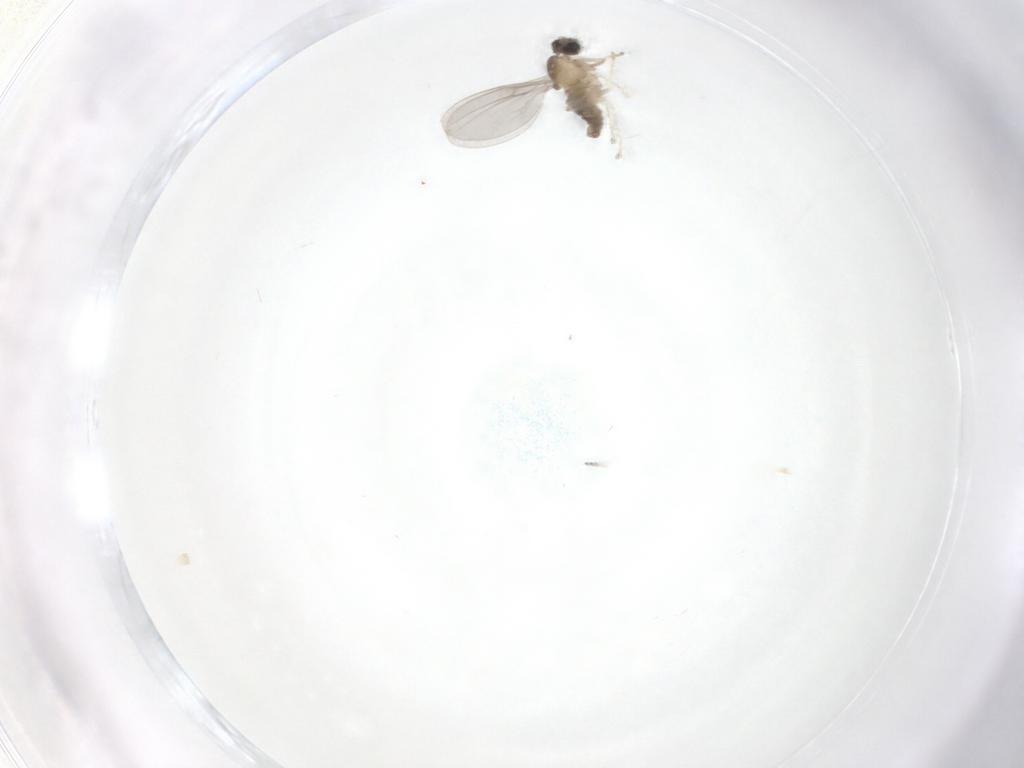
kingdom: Animalia
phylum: Arthropoda
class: Insecta
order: Diptera
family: Cecidomyiidae
